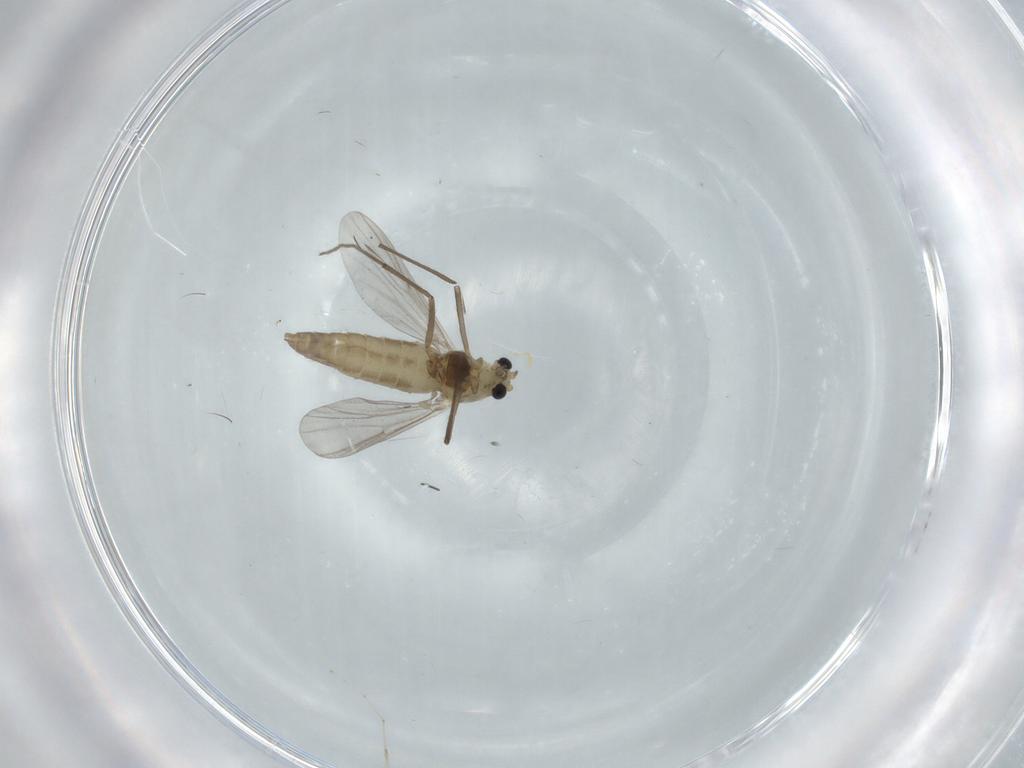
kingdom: Animalia
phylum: Arthropoda
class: Insecta
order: Diptera
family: Chironomidae
